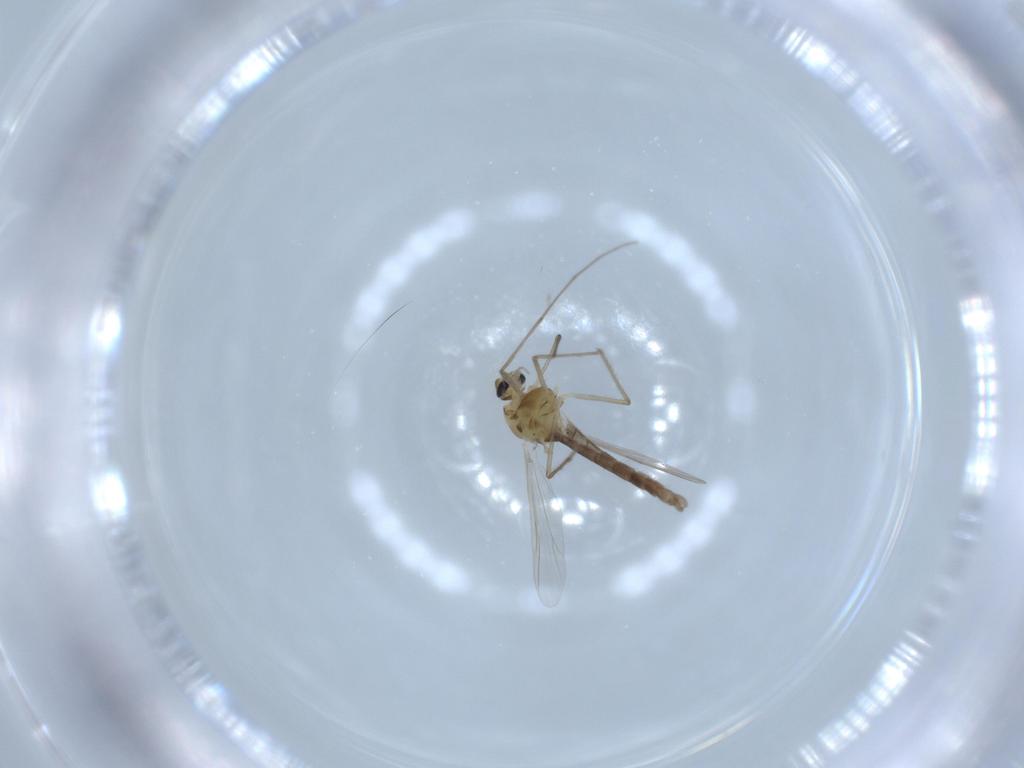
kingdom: Animalia
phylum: Arthropoda
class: Insecta
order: Diptera
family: Chironomidae
